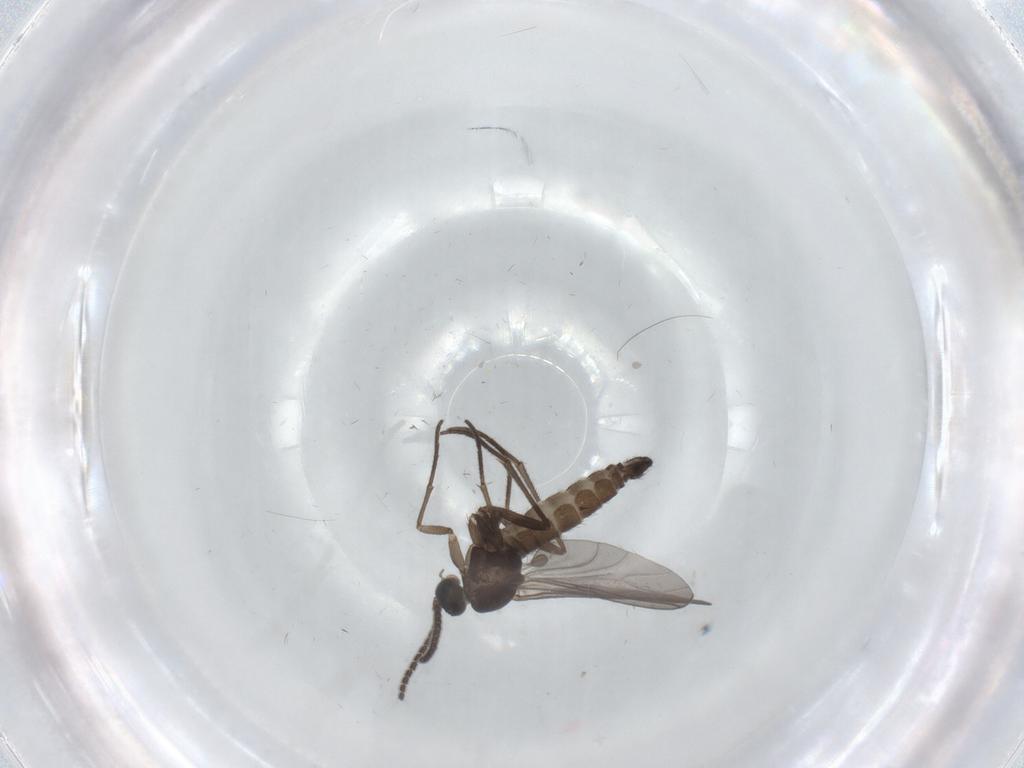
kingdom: Animalia
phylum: Arthropoda
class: Insecta
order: Diptera
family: Sciaridae
